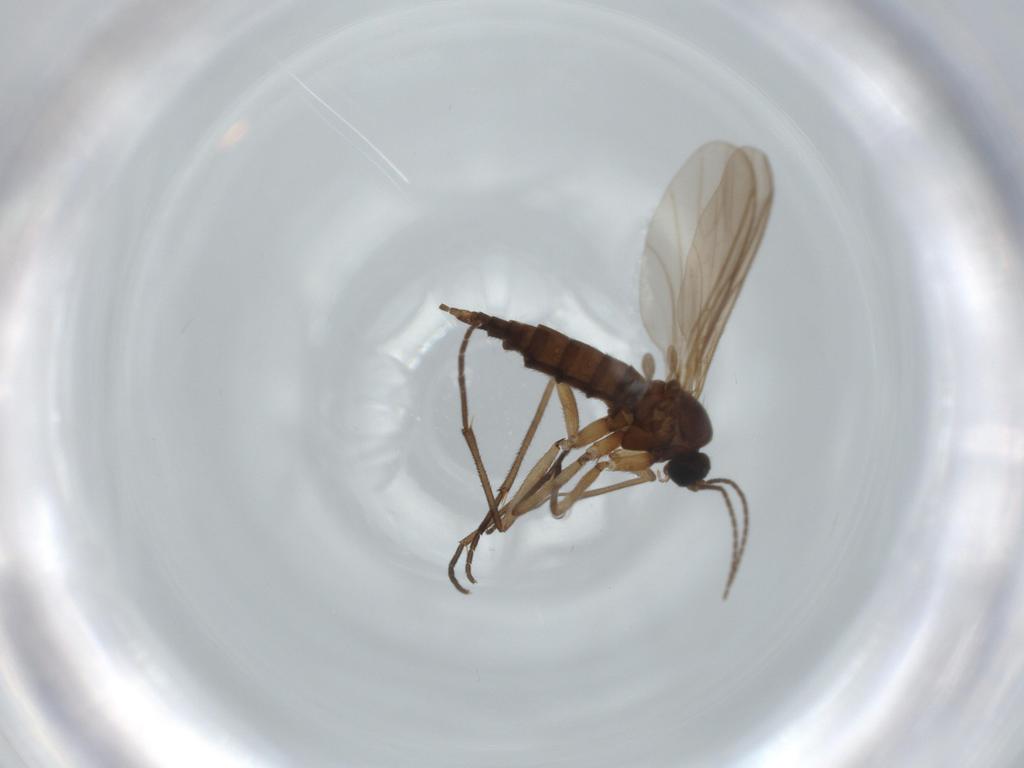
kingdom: Animalia
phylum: Arthropoda
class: Insecta
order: Diptera
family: Sciaridae
